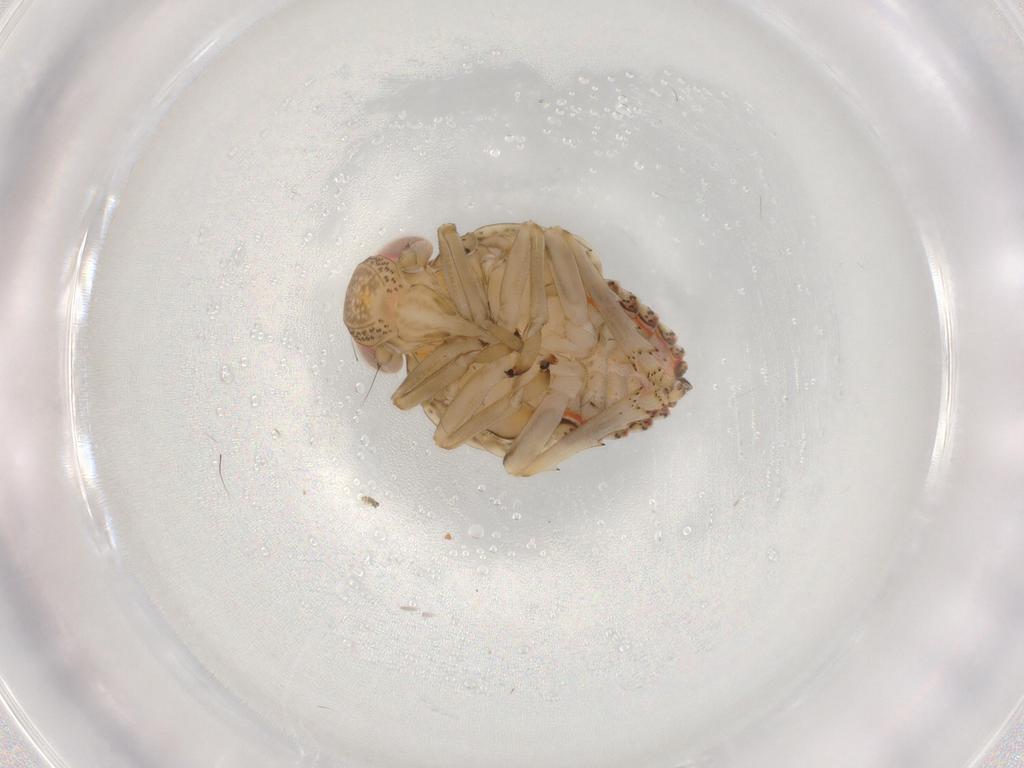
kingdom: Animalia
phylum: Arthropoda
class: Insecta
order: Hemiptera
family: Issidae
